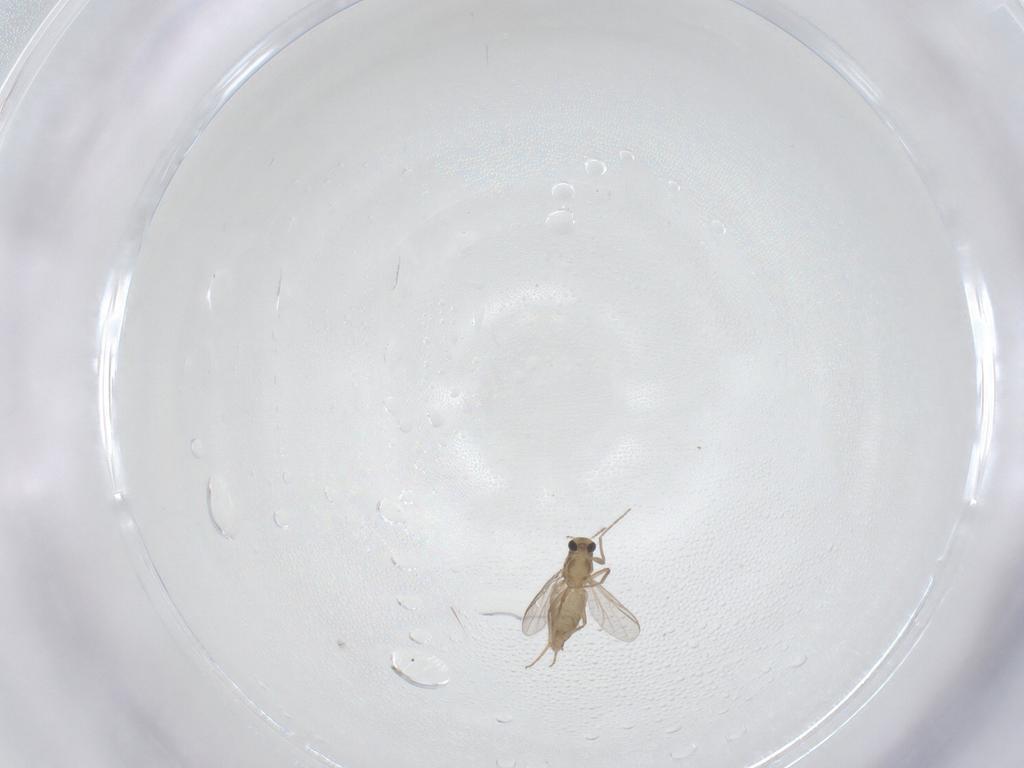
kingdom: Animalia
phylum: Arthropoda
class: Insecta
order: Diptera
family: Chironomidae
